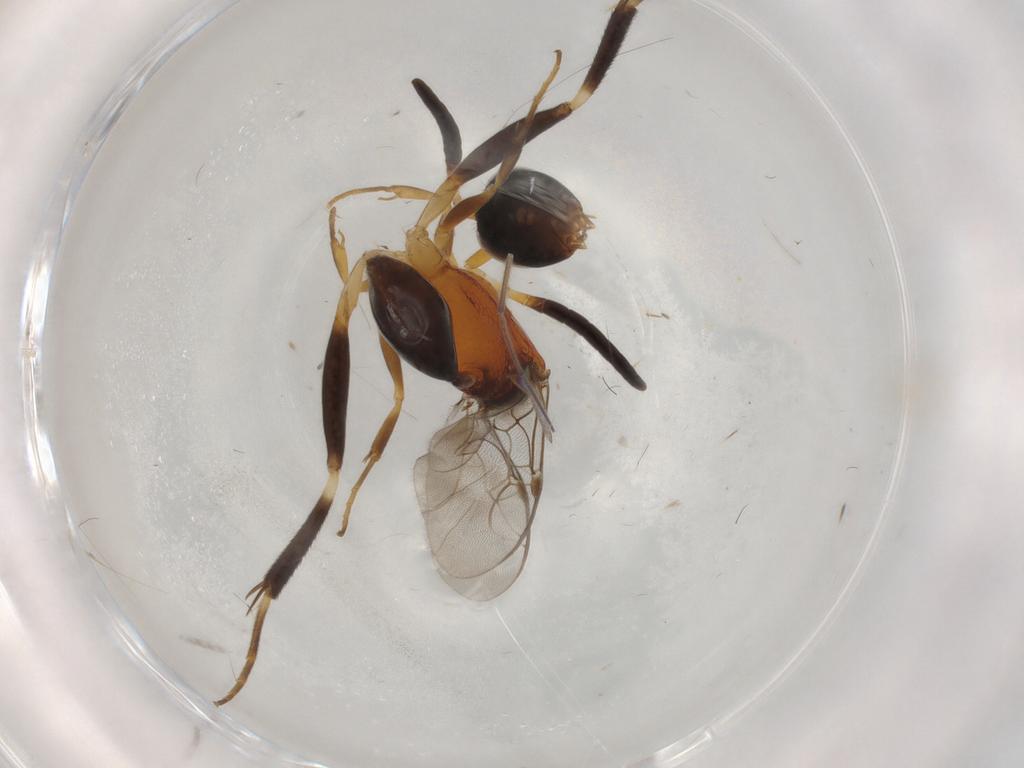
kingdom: Animalia
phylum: Arthropoda
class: Insecta
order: Hymenoptera
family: Evaniidae
